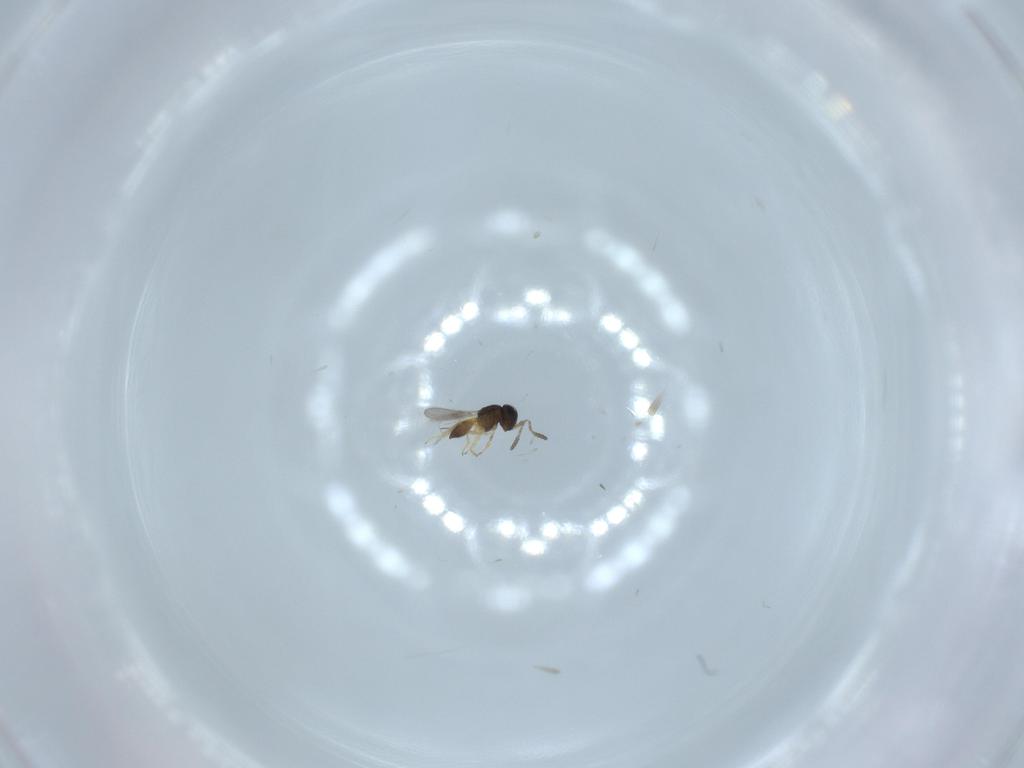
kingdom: Animalia
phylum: Arthropoda
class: Insecta
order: Hymenoptera
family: Scelionidae
